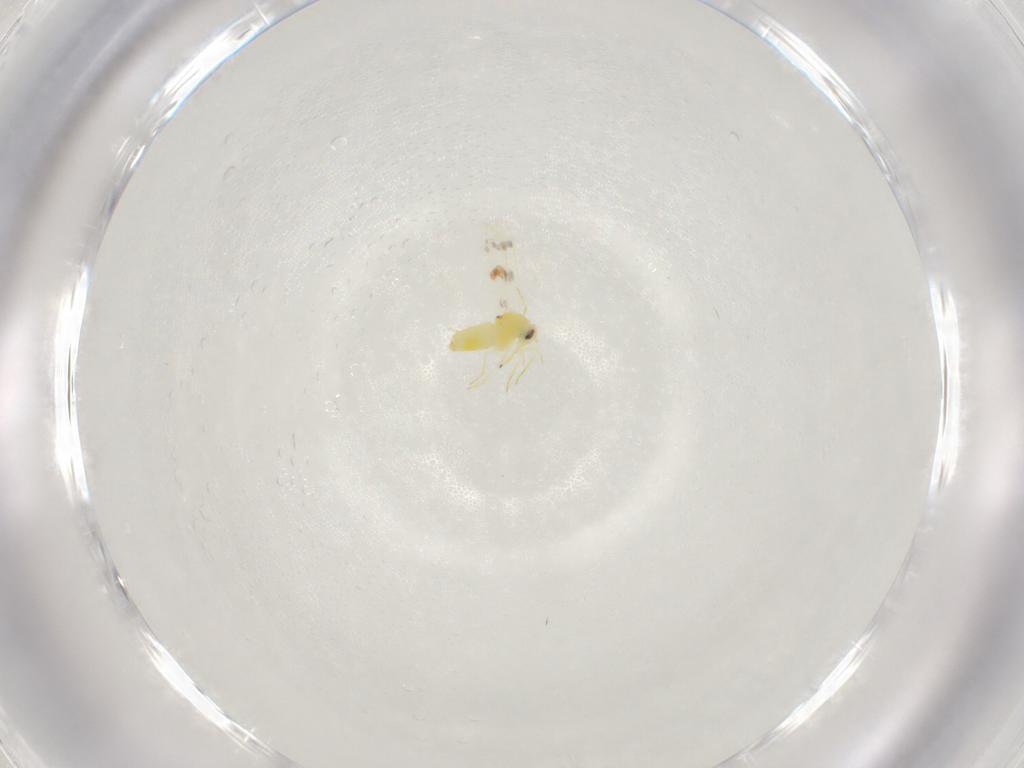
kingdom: Animalia
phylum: Arthropoda
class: Insecta
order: Hemiptera
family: Aleyrodidae
